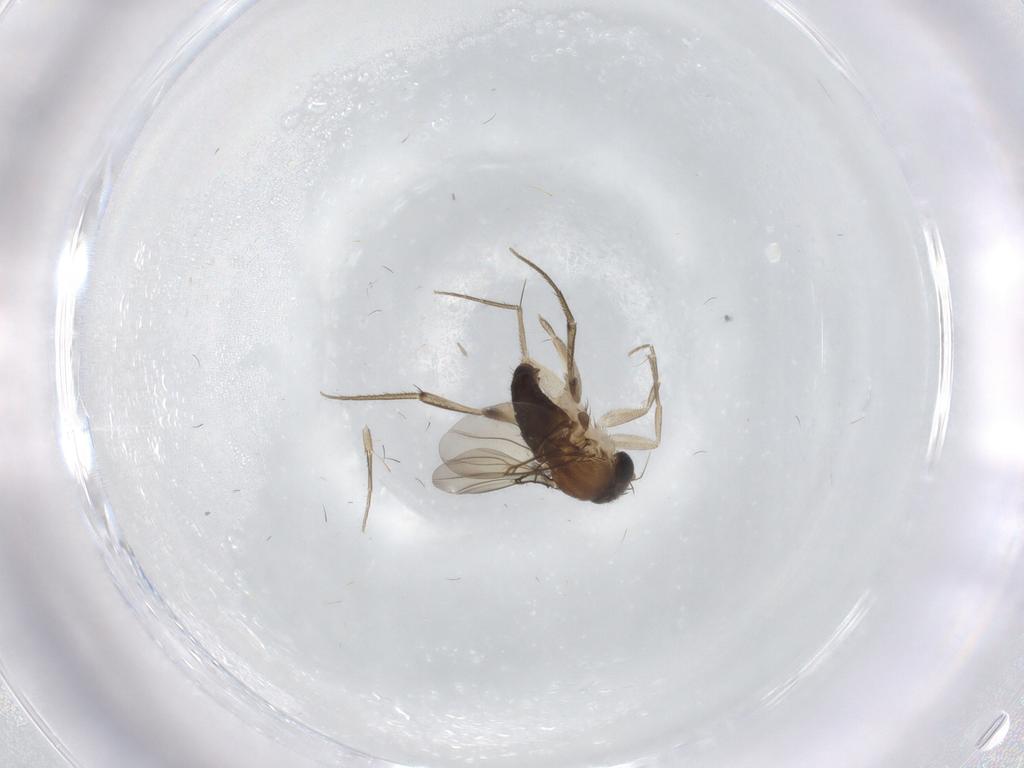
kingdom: Animalia
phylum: Arthropoda
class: Insecta
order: Diptera
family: Phoridae
